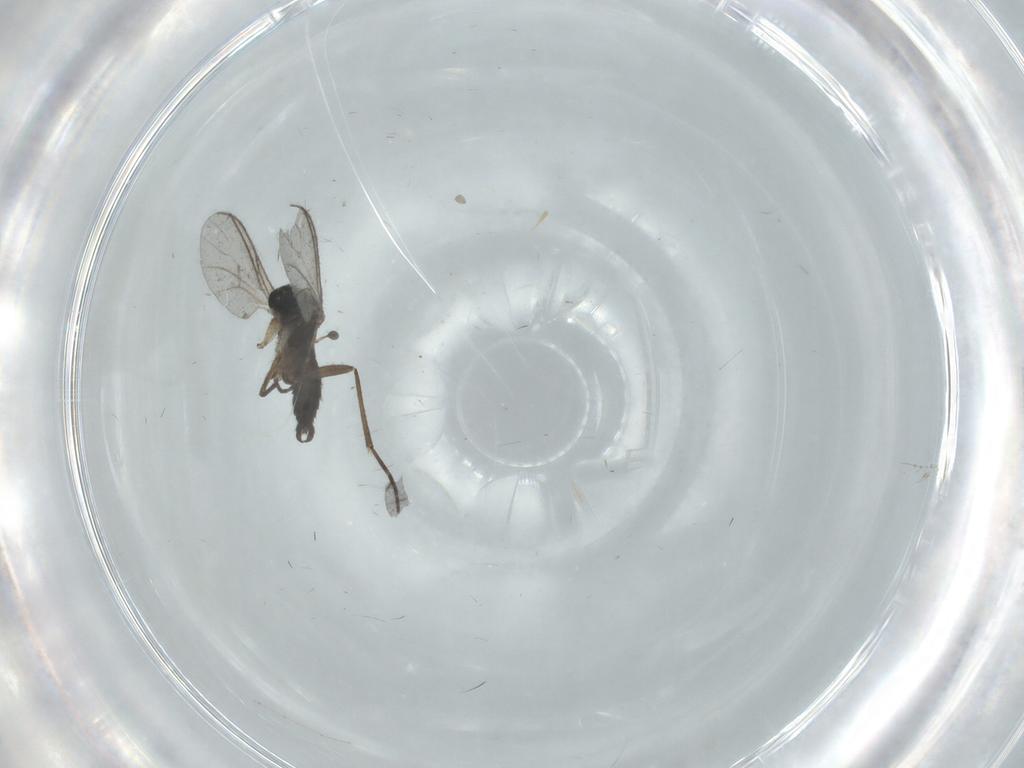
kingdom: Animalia
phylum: Arthropoda
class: Insecta
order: Diptera
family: Sciaridae
